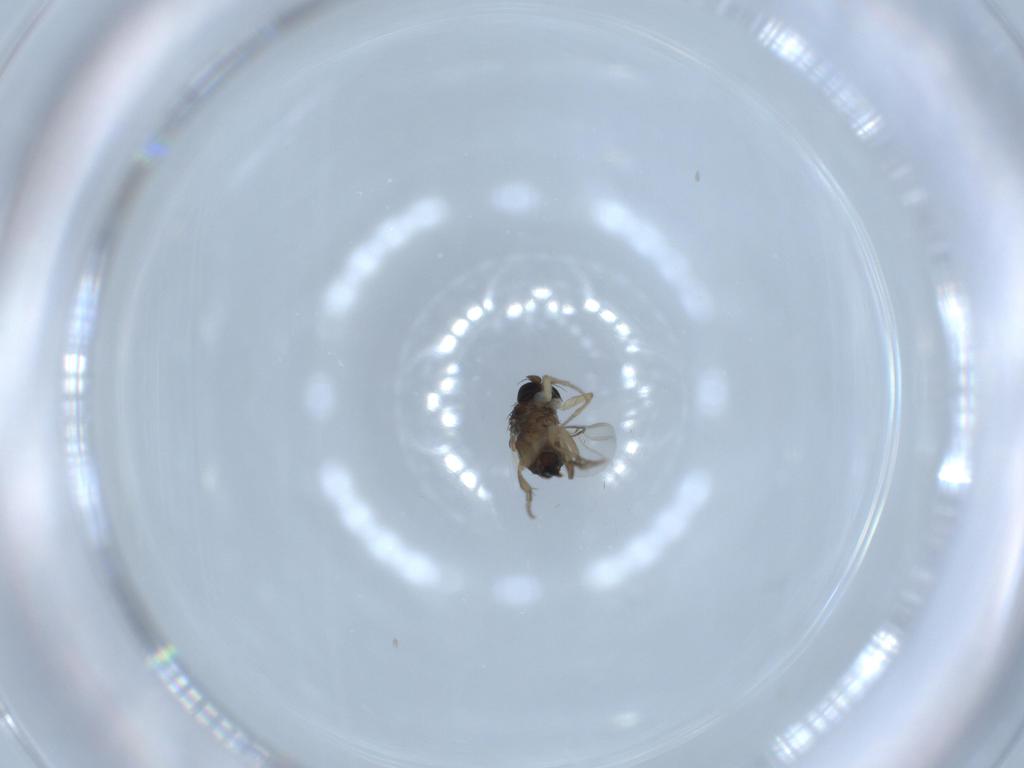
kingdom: Animalia
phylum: Arthropoda
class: Insecta
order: Diptera
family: Phoridae
